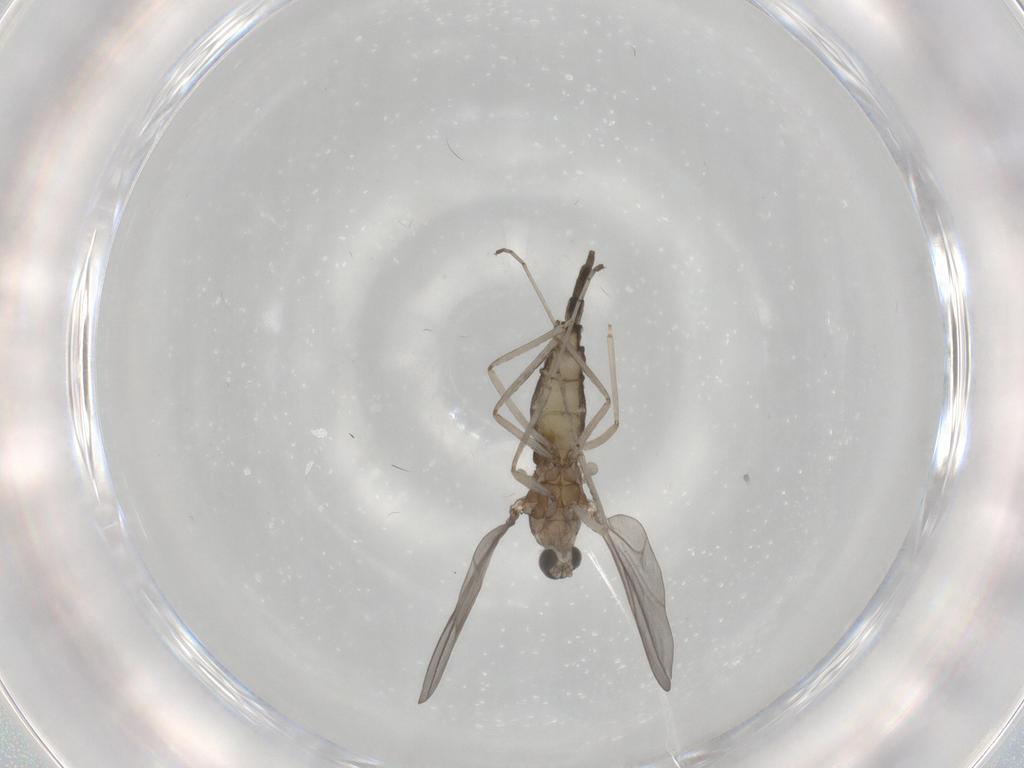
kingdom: Animalia
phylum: Arthropoda
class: Insecta
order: Diptera
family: Cecidomyiidae
